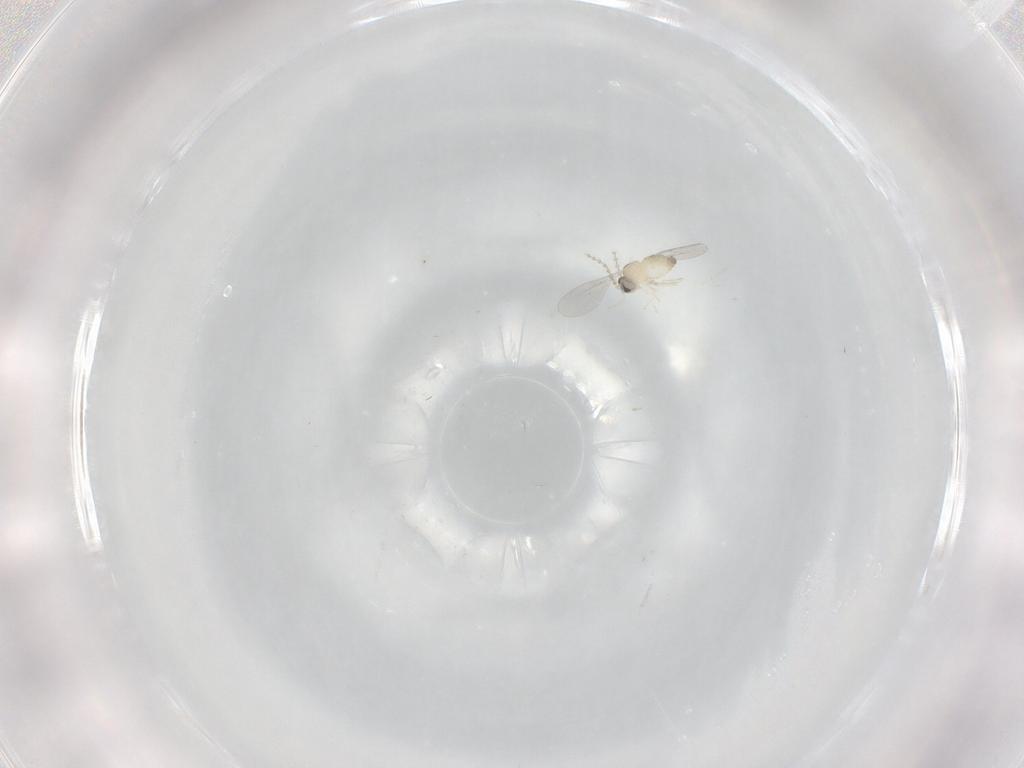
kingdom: Animalia
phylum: Arthropoda
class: Insecta
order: Diptera
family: Cecidomyiidae
